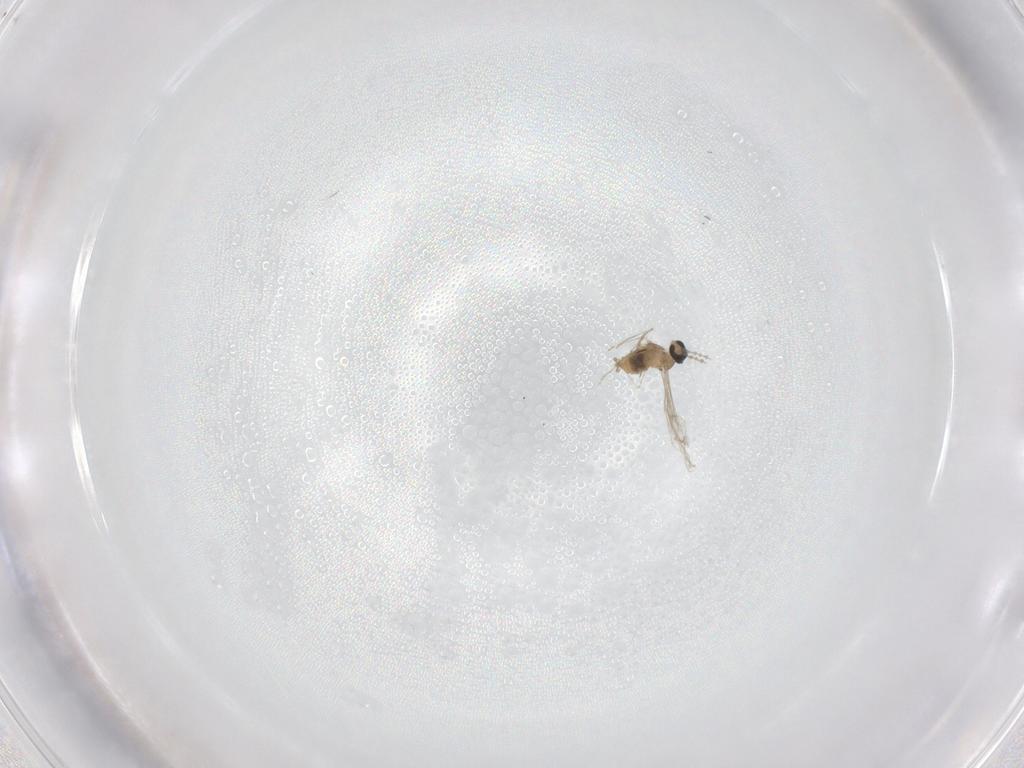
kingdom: Animalia
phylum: Arthropoda
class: Insecta
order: Diptera
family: Cecidomyiidae
